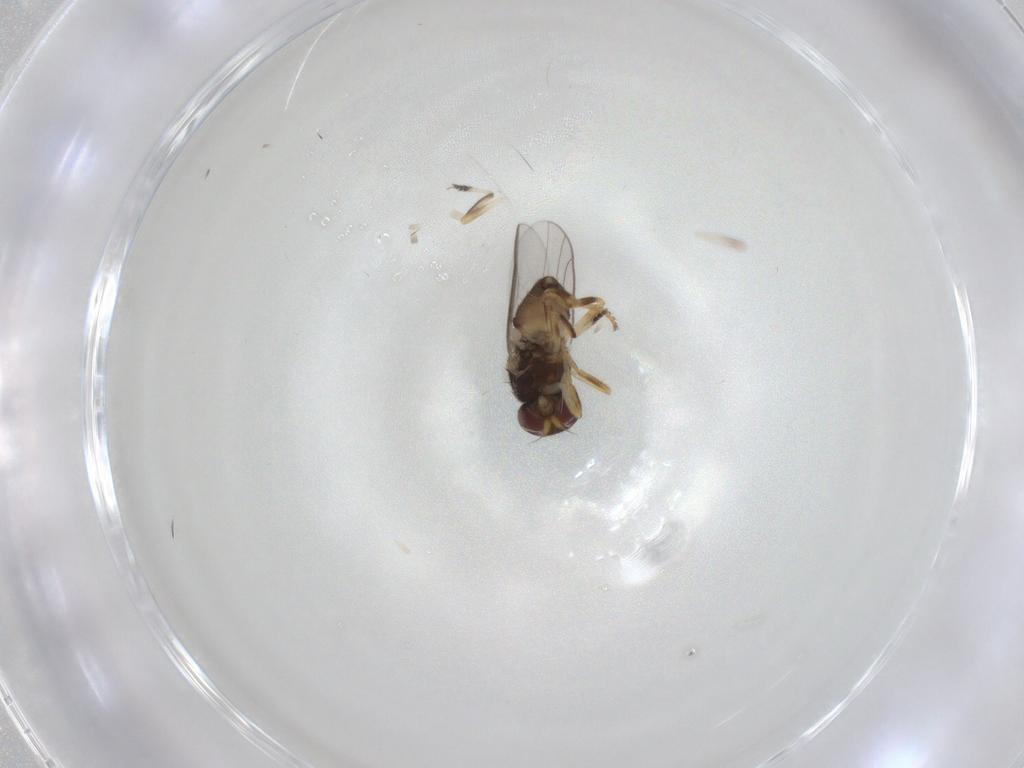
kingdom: Animalia
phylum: Arthropoda
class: Insecta
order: Diptera
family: Chloropidae
